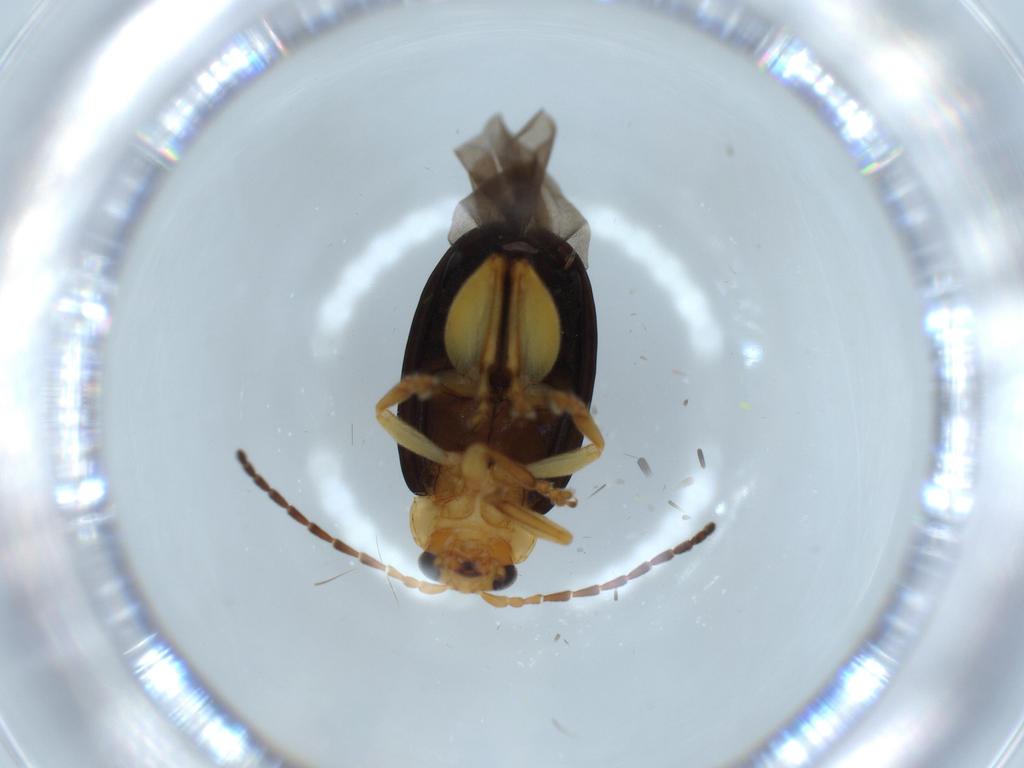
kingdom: Animalia
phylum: Arthropoda
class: Insecta
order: Coleoptera
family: Chrysomelidae
